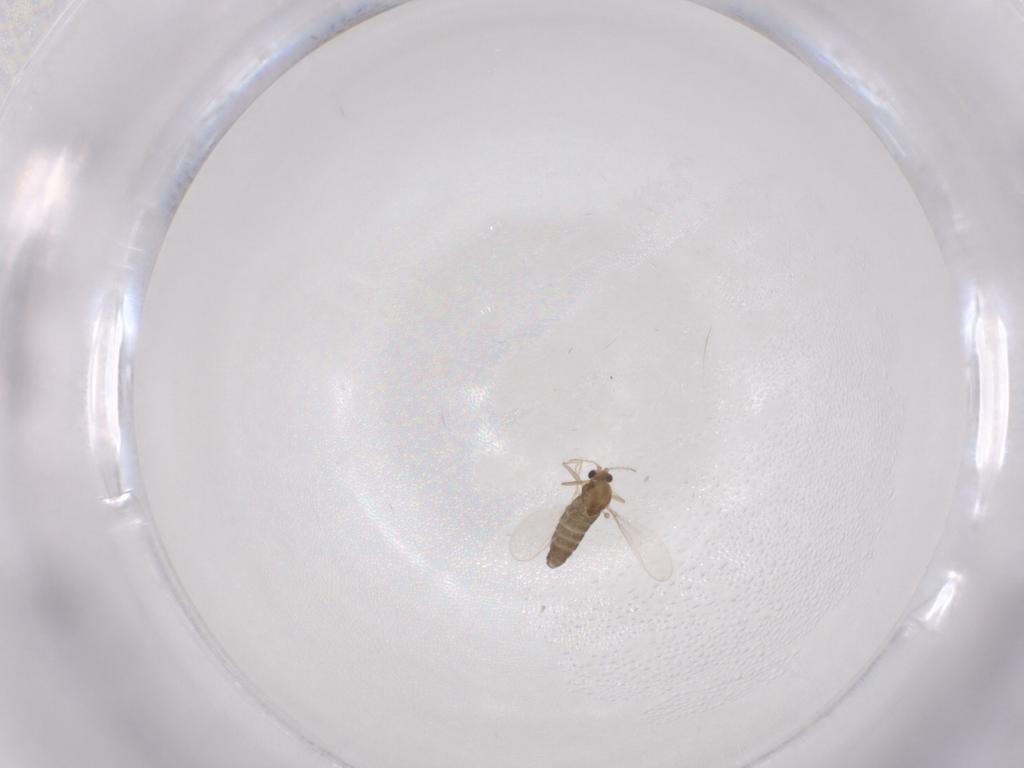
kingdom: Animalia
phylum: Arthropoda
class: Insecta
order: Diptera
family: Chironomidae
